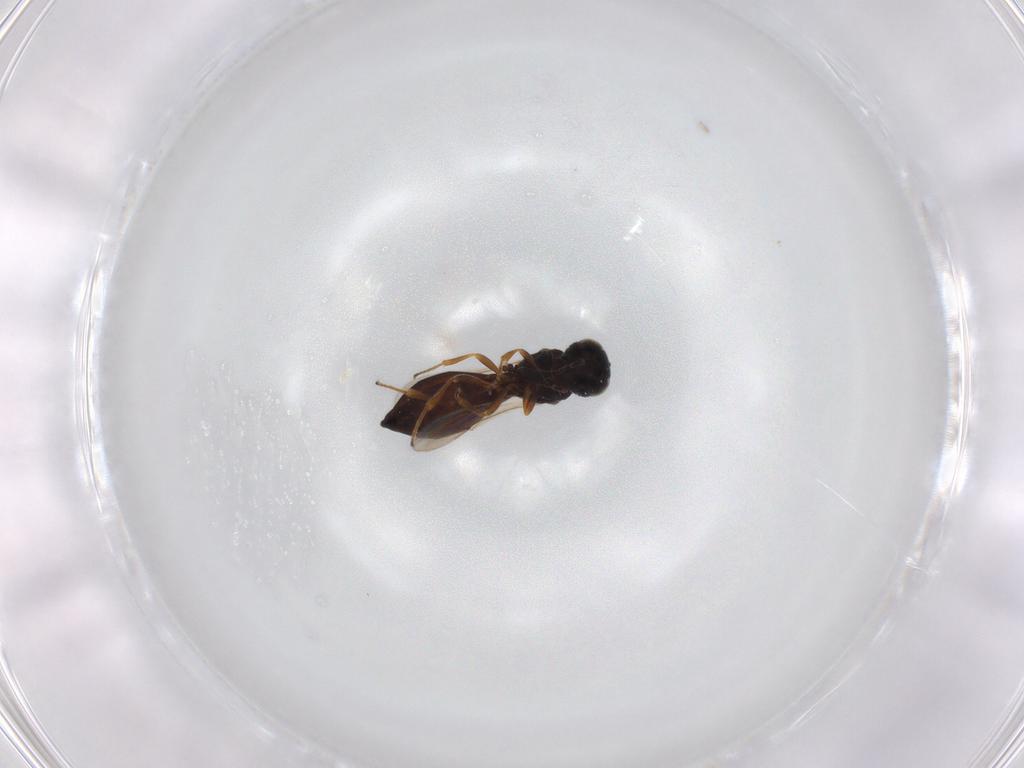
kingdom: Animalia
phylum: Arthropoda
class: Insecta
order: Hymenoptera
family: Scelionidae
